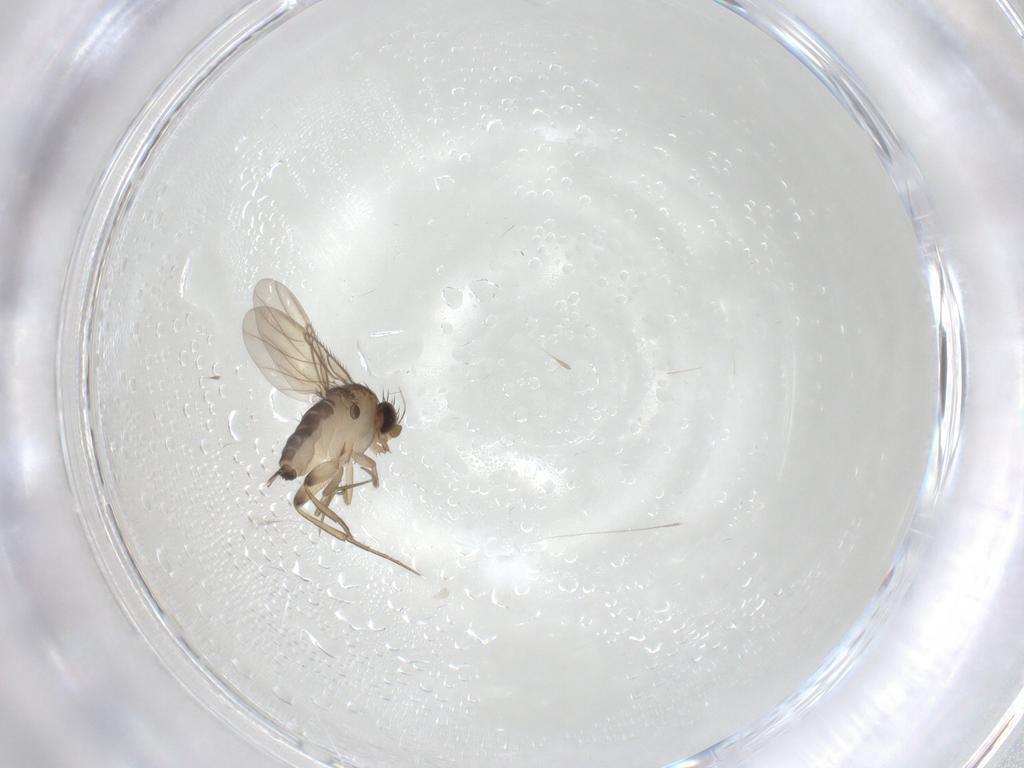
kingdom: Animalia
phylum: Arthropoda
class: Insecta
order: Diptera
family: Phoridae
